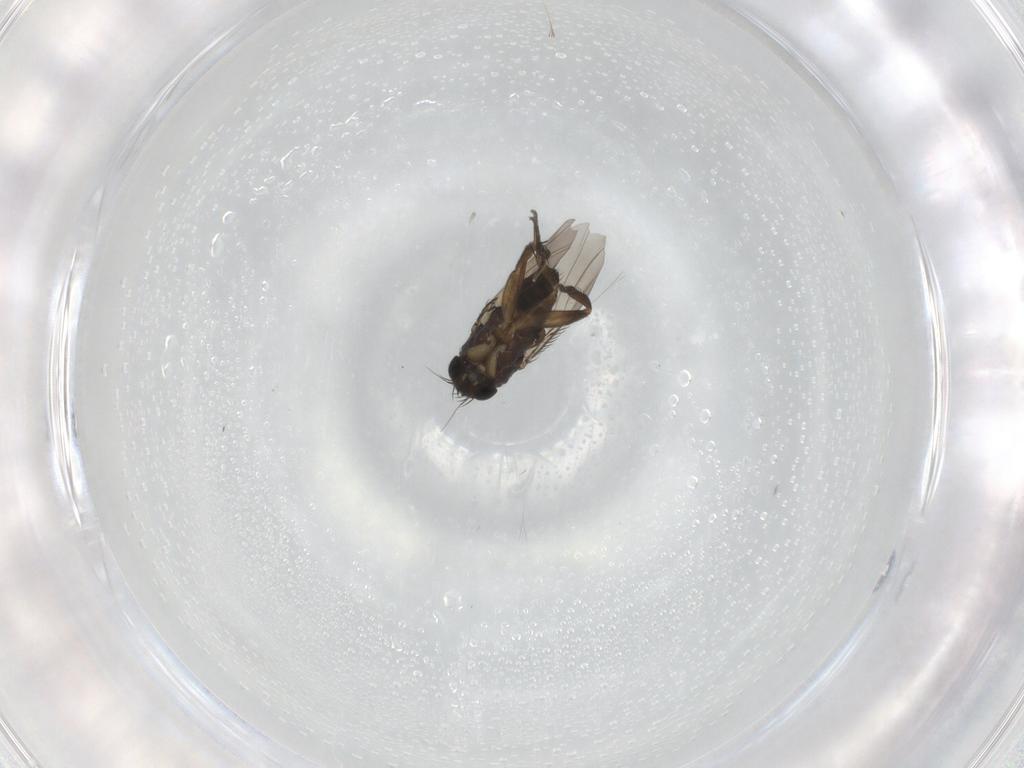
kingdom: Animalia
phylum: Arthropoda
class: Insecta
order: Diptera
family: Phoridae
